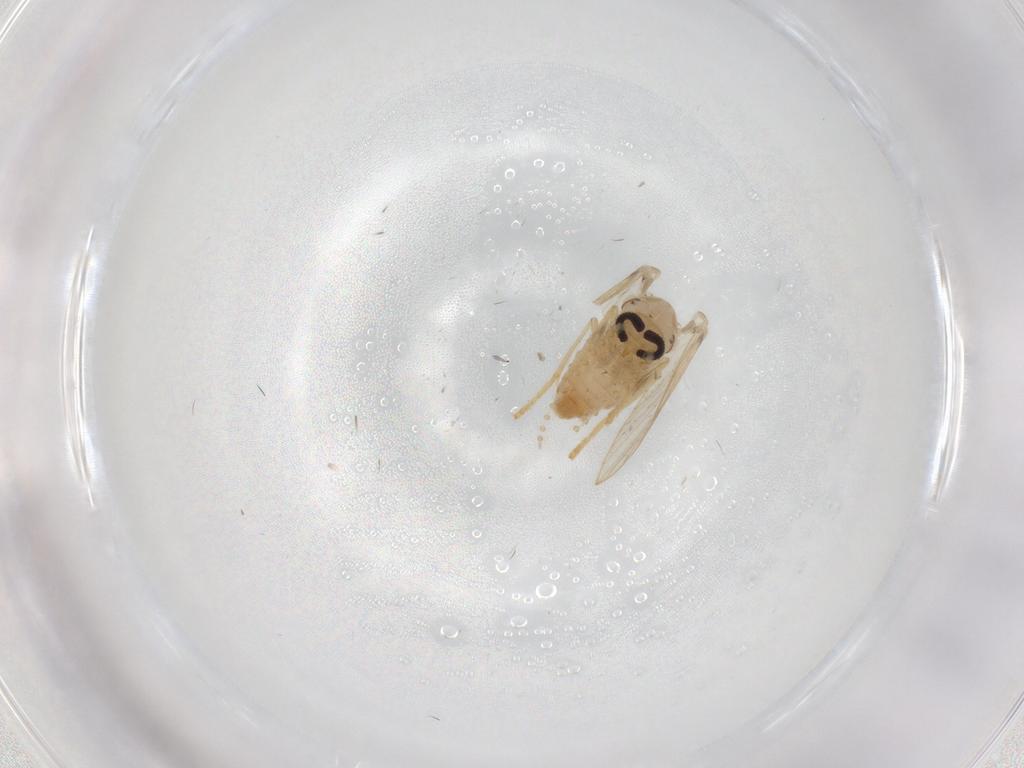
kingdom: Animalia
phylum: Arthropoda
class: Insecta
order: Diptera
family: Psychodidae
